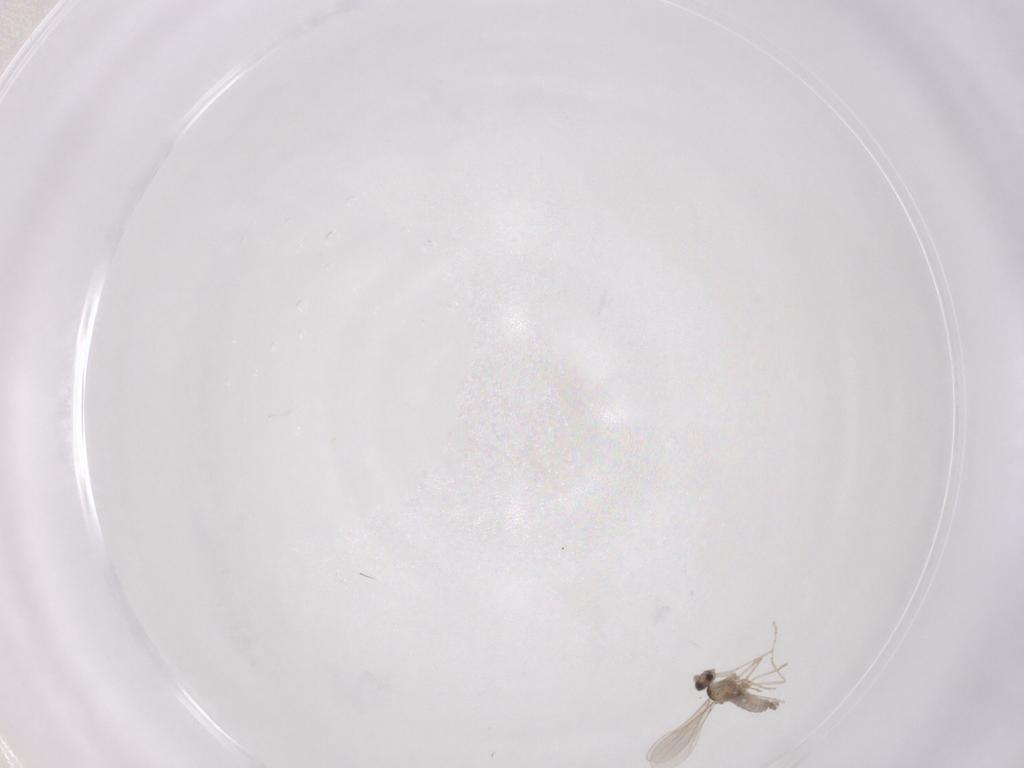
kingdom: Animalia
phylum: Arthropoda
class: Insecta
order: Diptera
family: Cecidomyiidae
